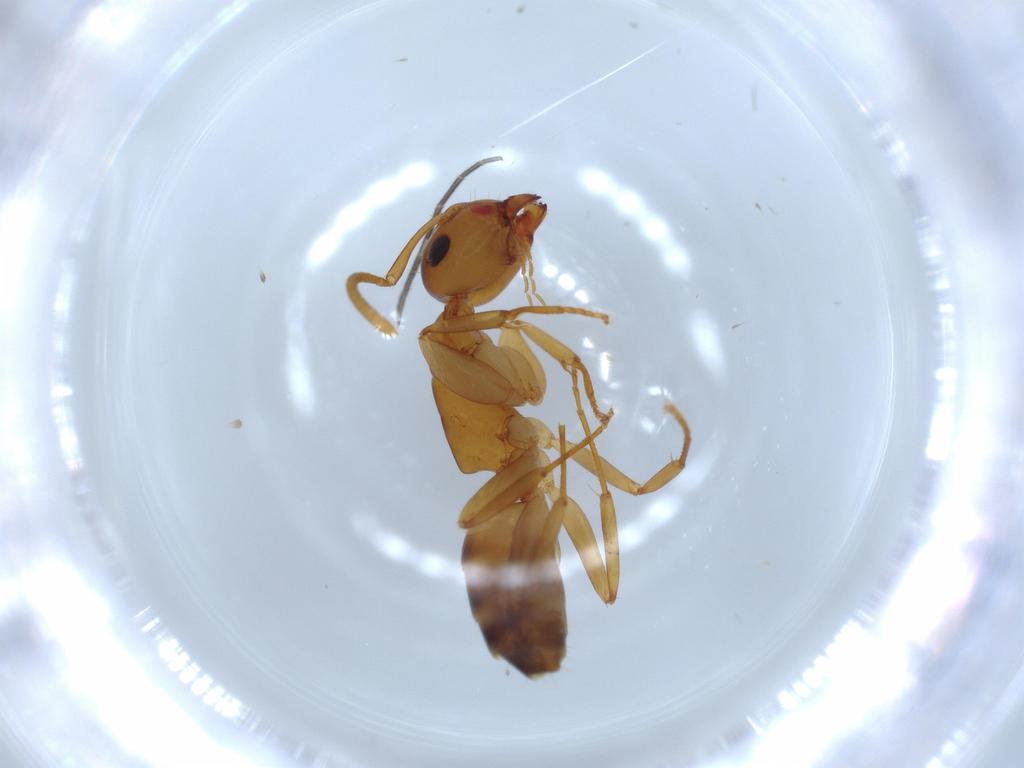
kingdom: Animalia
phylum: Arthropoda
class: Insecta
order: Hymenoptera
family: Formicidae
